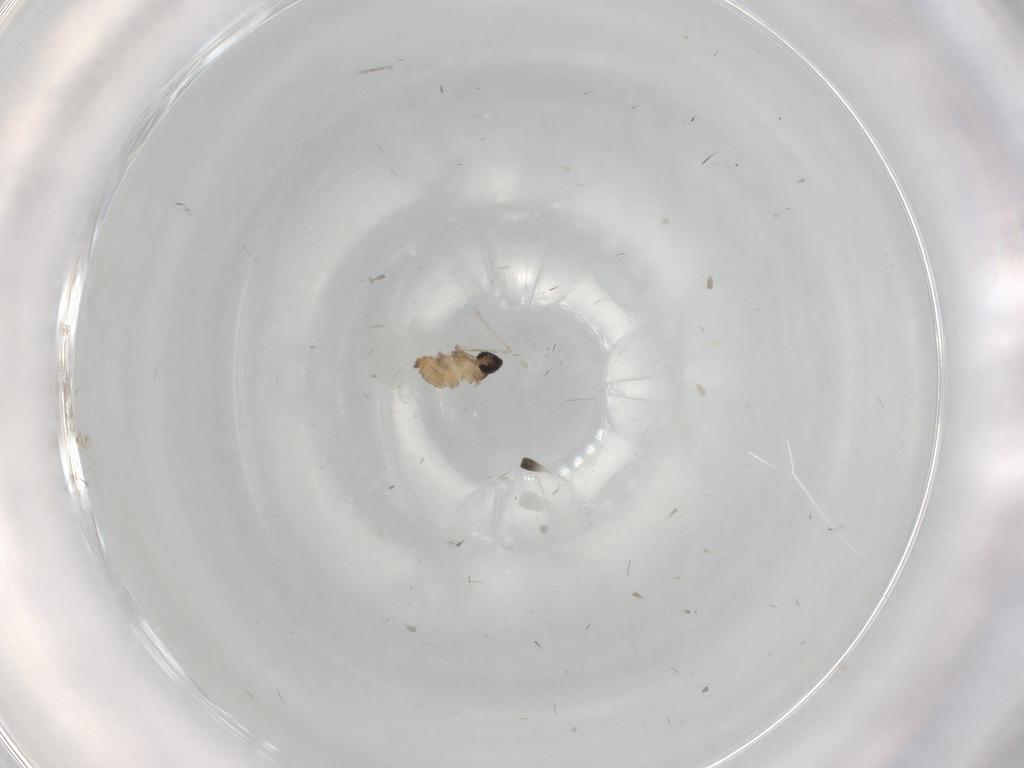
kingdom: Animalia
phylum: Arthropoda
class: Insecta
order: Diptera
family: Cecidomyiidae
